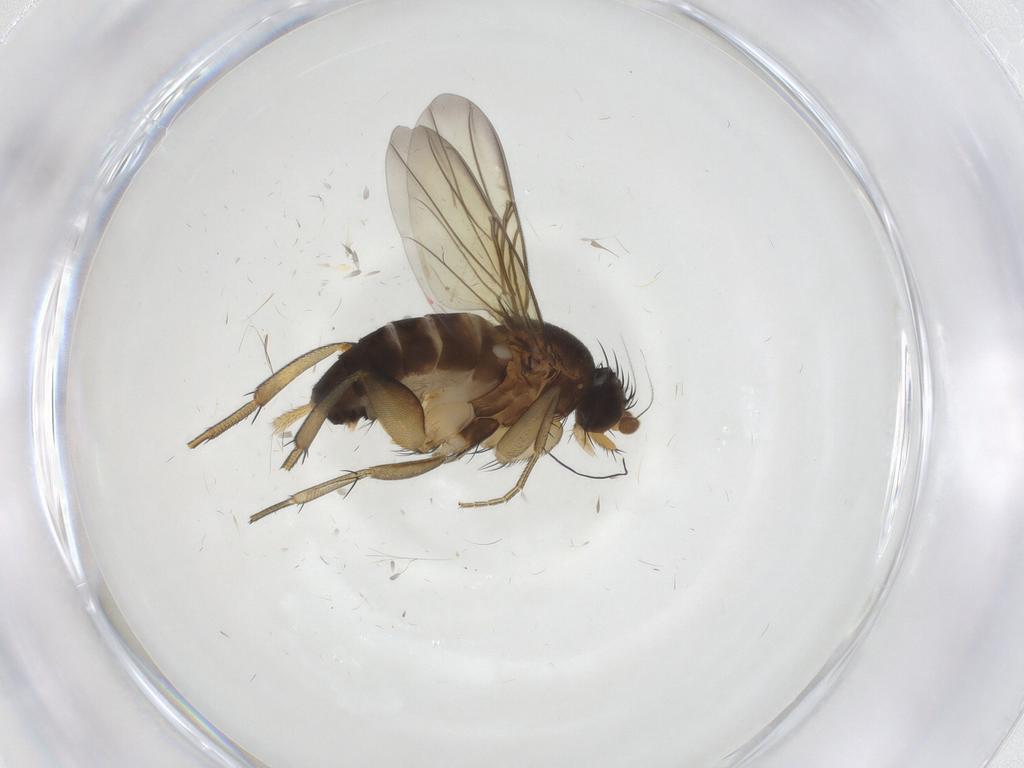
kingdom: Animalia
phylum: Arthropoda
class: Insecta
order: Diptera
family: Phoridae
